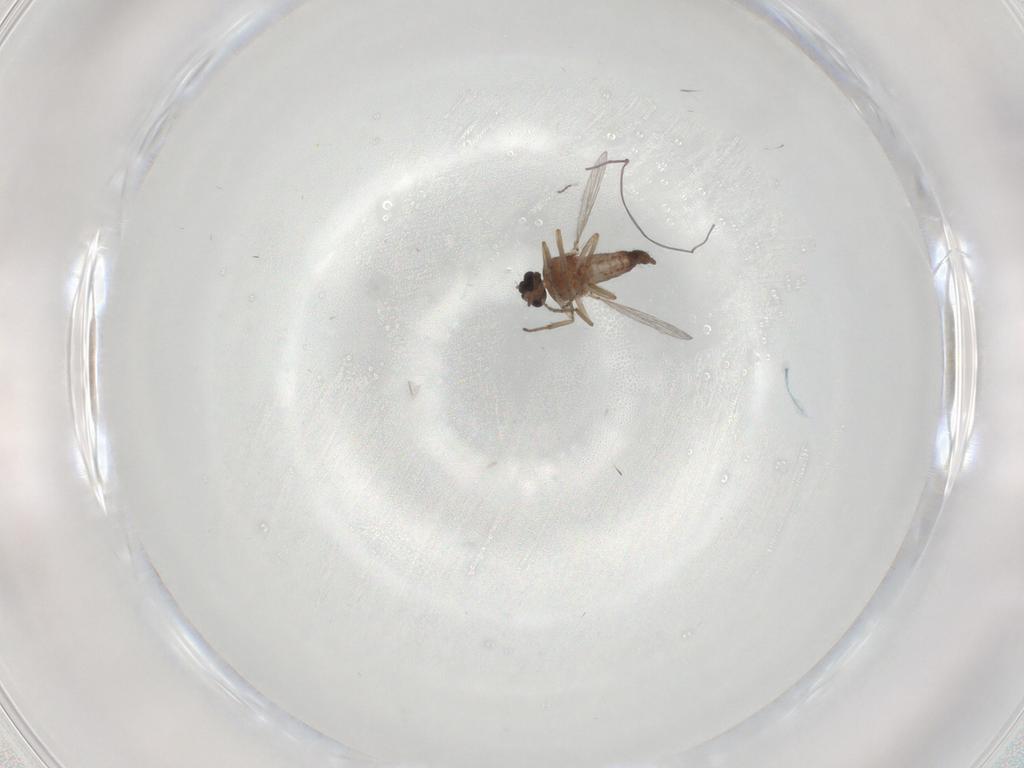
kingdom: Animalia
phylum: Arthropoda
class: Insecta
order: Diptera
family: Ceratopogonidae
